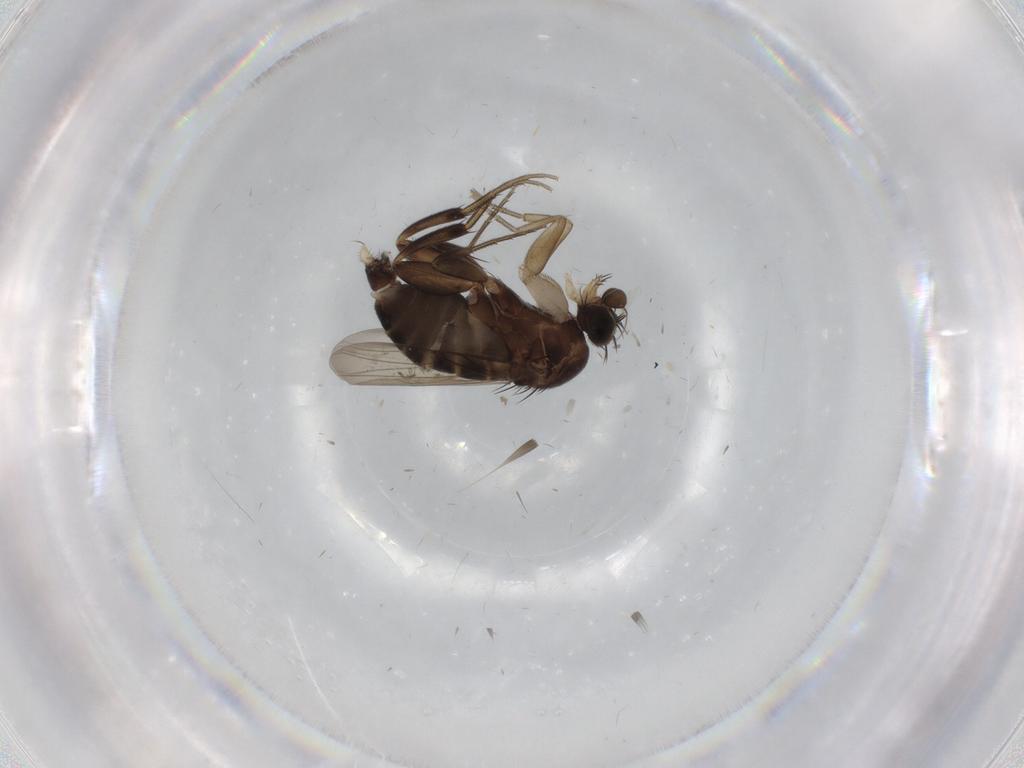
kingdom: Animalia
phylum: Arthropoda
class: Insecta
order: Diptera
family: Phoridae
